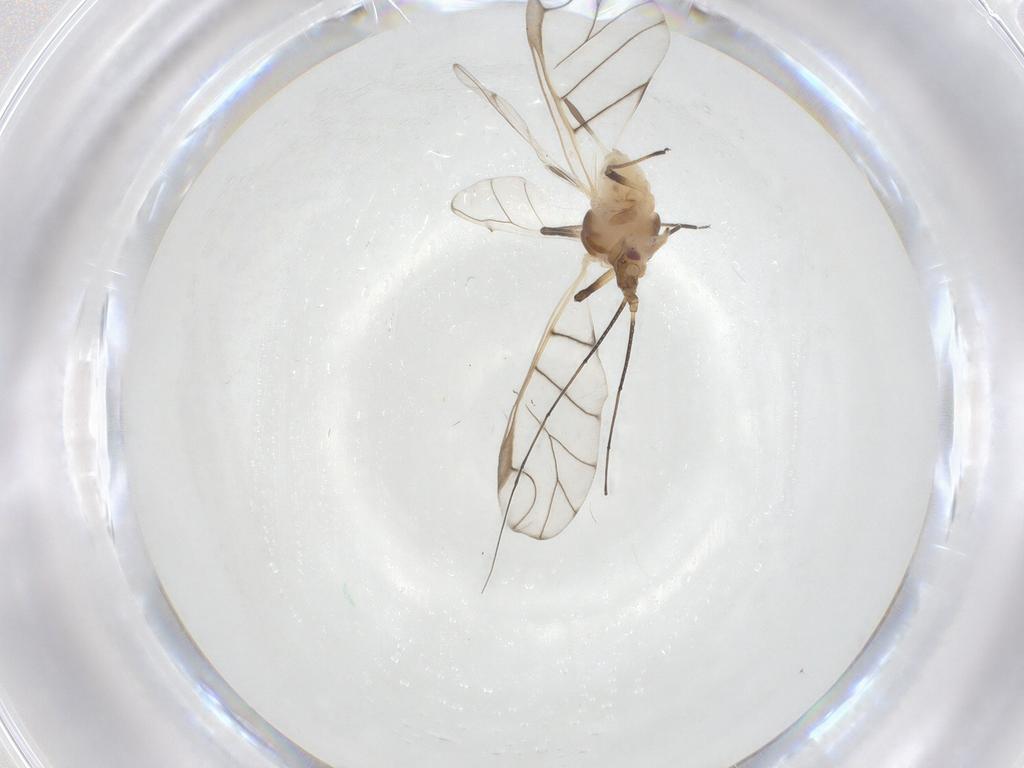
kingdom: Animalia
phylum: Arthropoda
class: Insecta
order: Hemiptera
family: Aphididae
